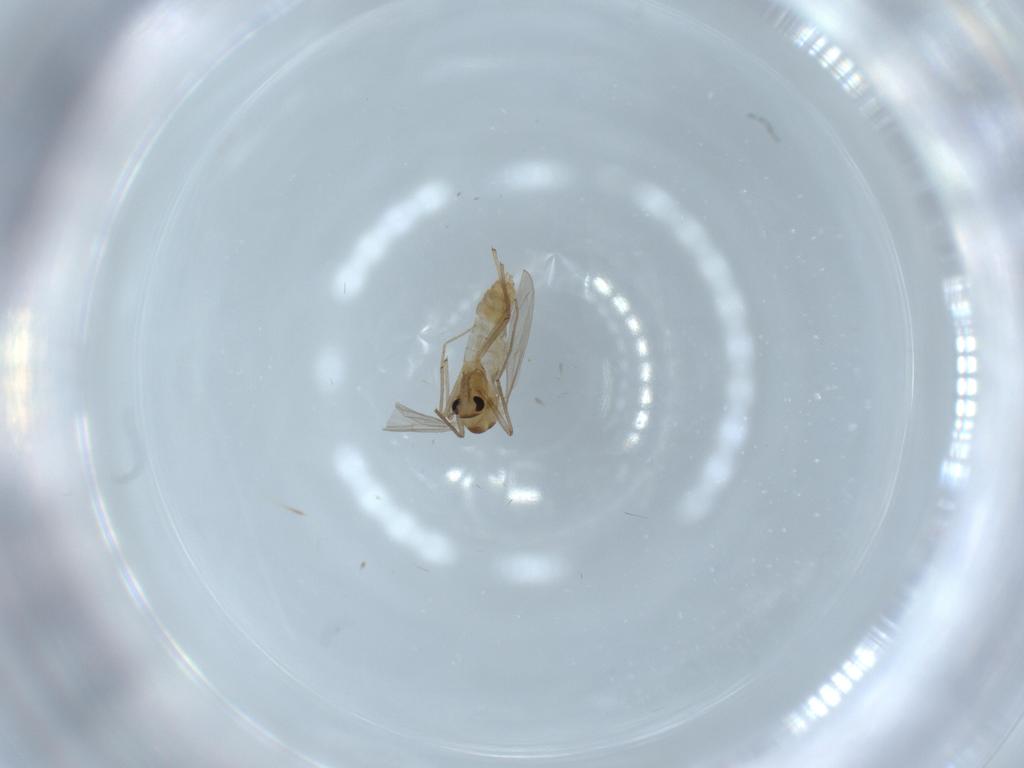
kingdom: Animalia
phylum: Arthropoda
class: Insecta
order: Diptera
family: Chironomidae
